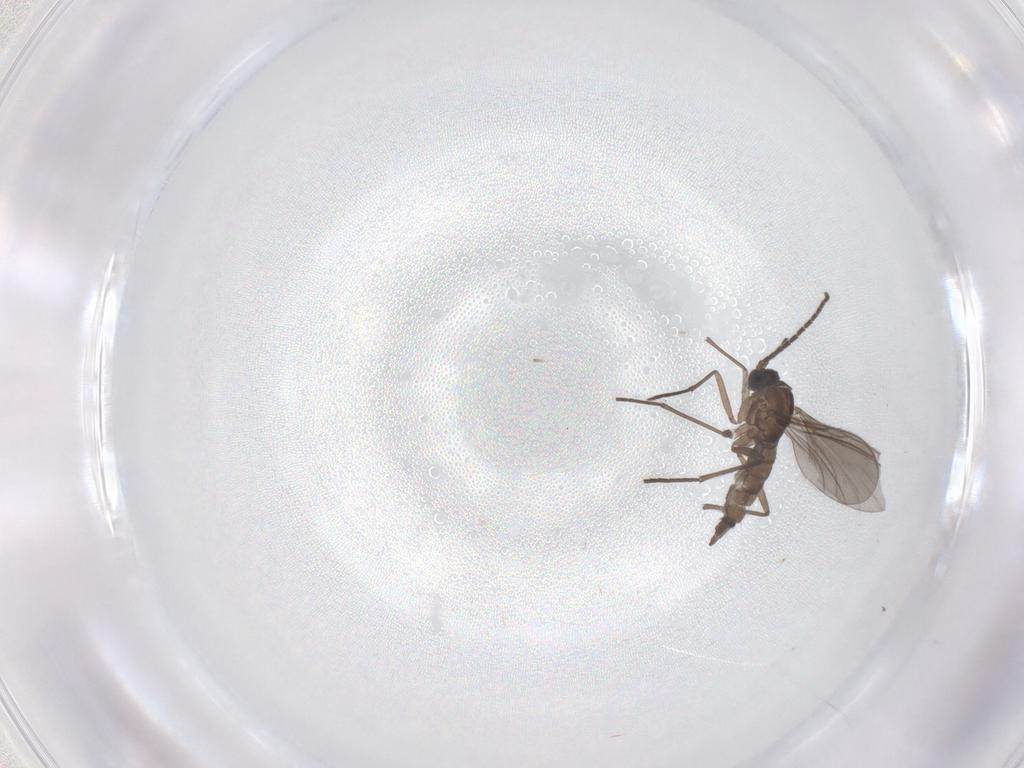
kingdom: Animalia
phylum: Arthropoda
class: Insecta
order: Diptera
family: Sciaridae
